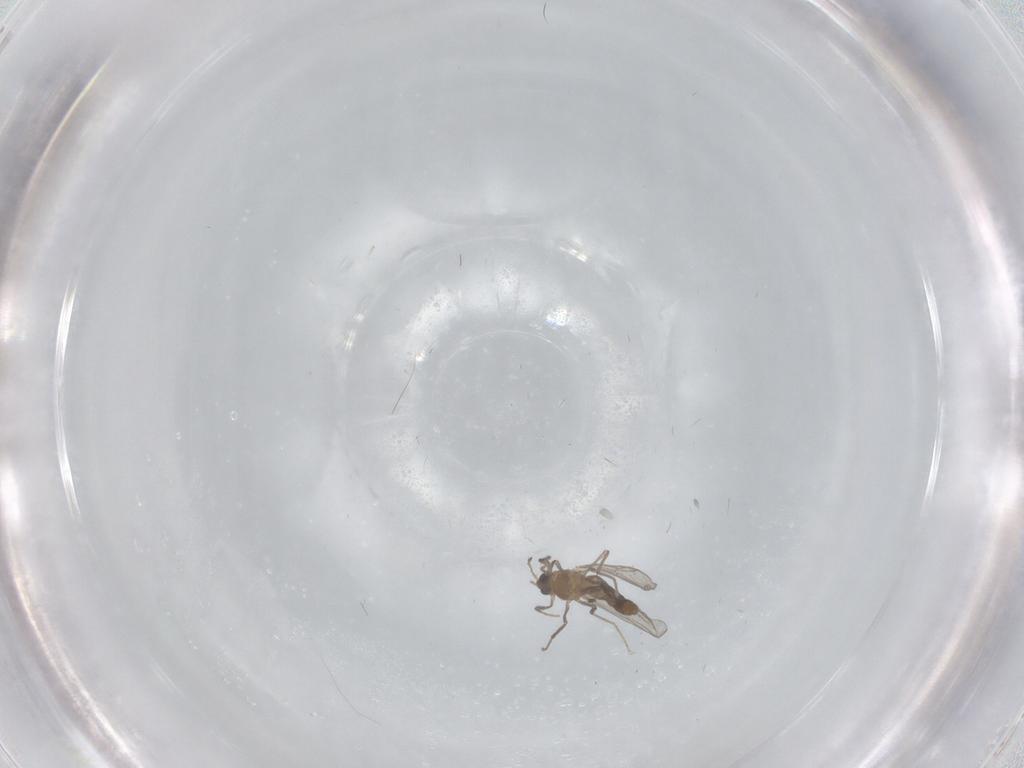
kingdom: Animalia
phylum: Arthropoda
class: Insecta
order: Diptera
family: Chironomidae
